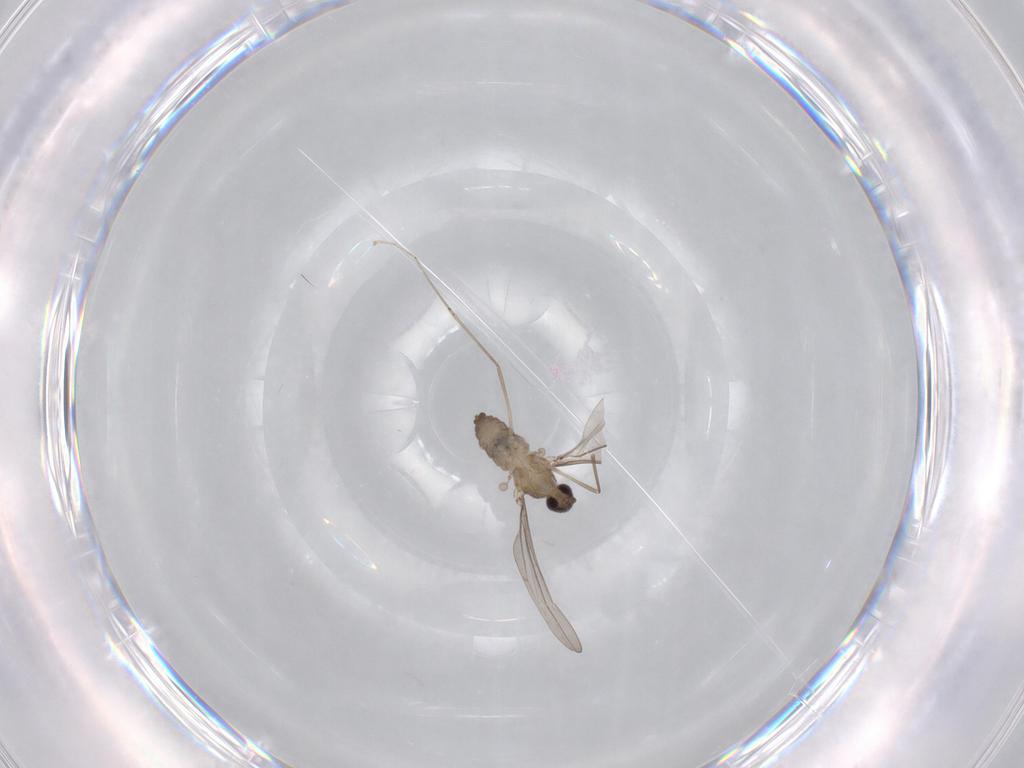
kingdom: Animalia
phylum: Arthropoda
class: Insecta
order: Diptera
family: Cecidomyiidae
